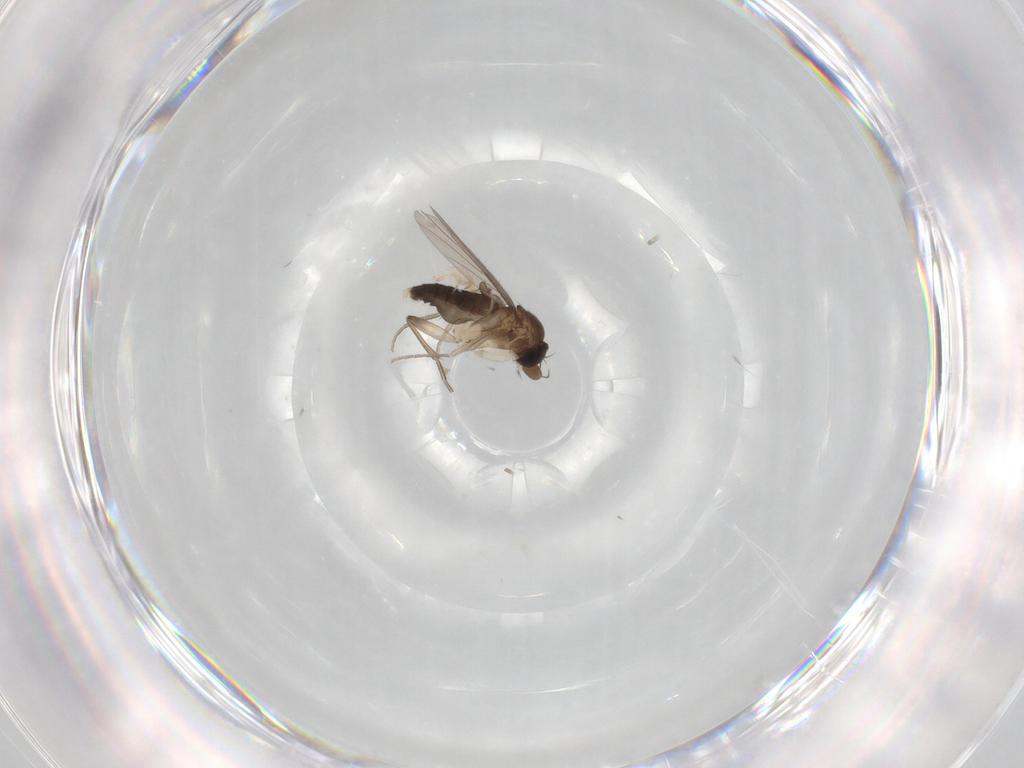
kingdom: Animalia
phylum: Arthropoda
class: Insecta
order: Diptera
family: Phoridae
